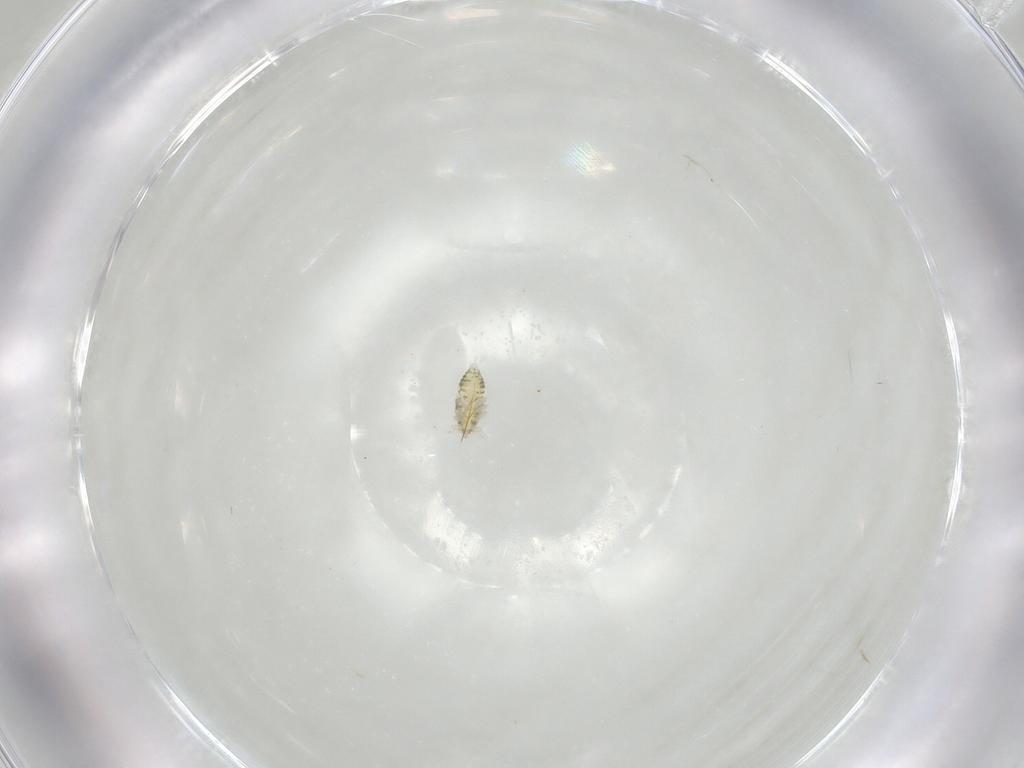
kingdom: Animalia
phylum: Arthropoda
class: Insecta
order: Neuroptera
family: Coniopterygidae
